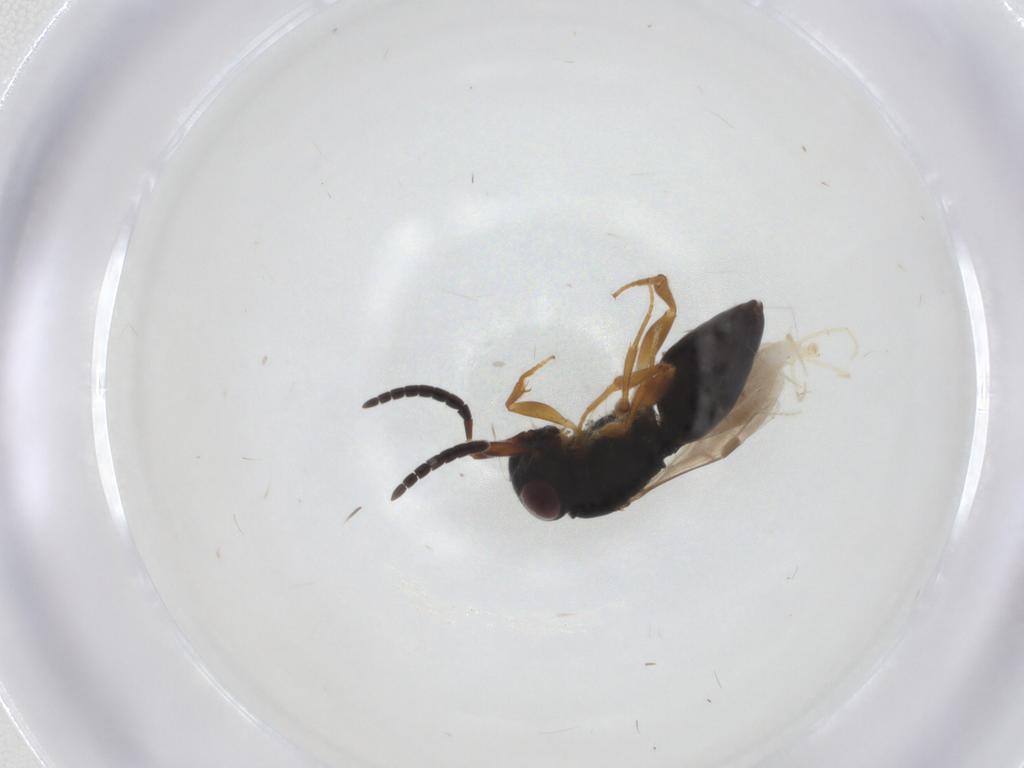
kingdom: Animalia
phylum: Arthropoda
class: Arachnida
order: Trombidiformes
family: Erythraeidae
